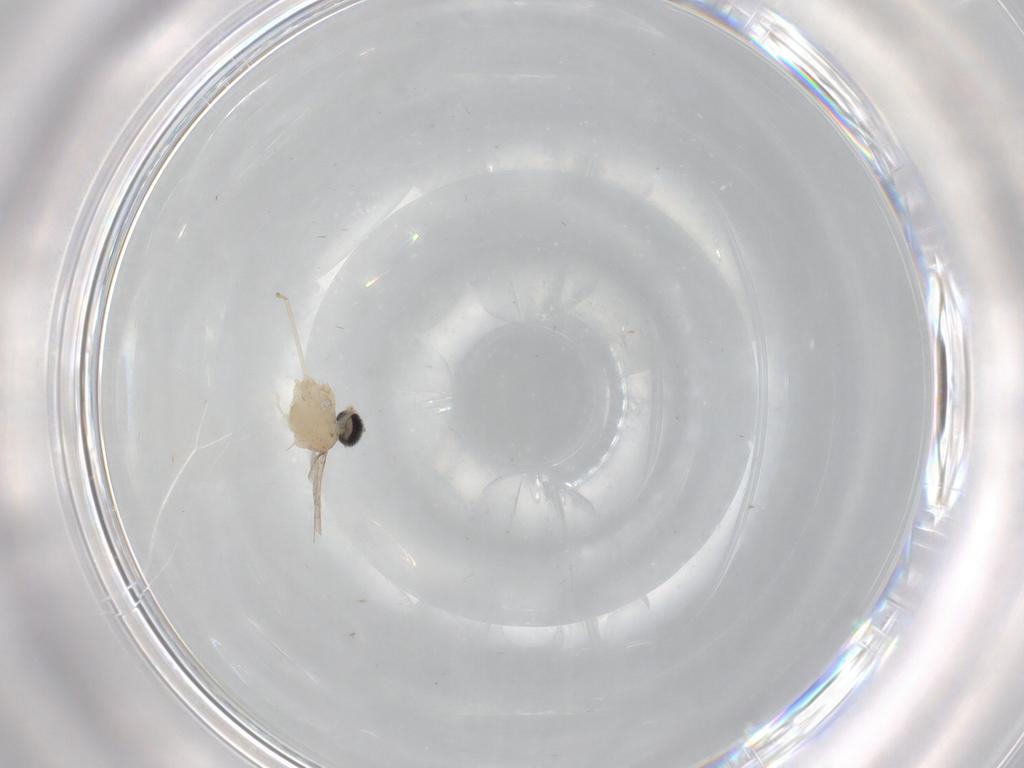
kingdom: Animalia
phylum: Arthropoda
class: Insecta
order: Diptera
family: Cecidomyiidae
